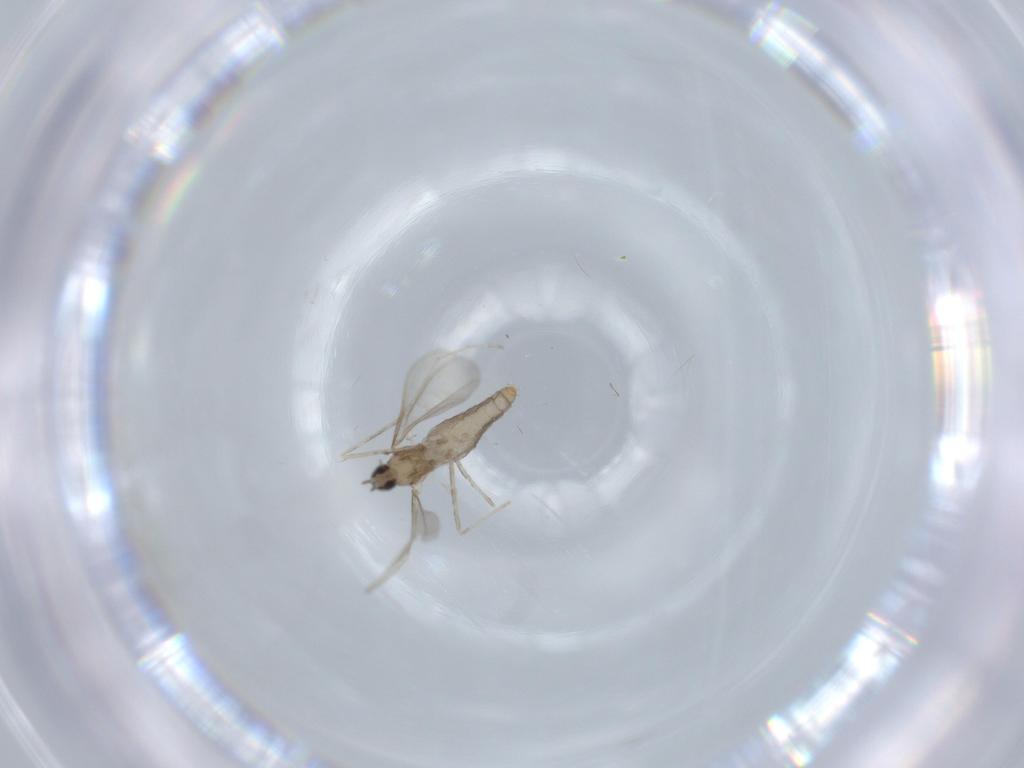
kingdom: Animalia
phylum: Arthropoda
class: Insecta
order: Diptera
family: Cecidomyiidae
